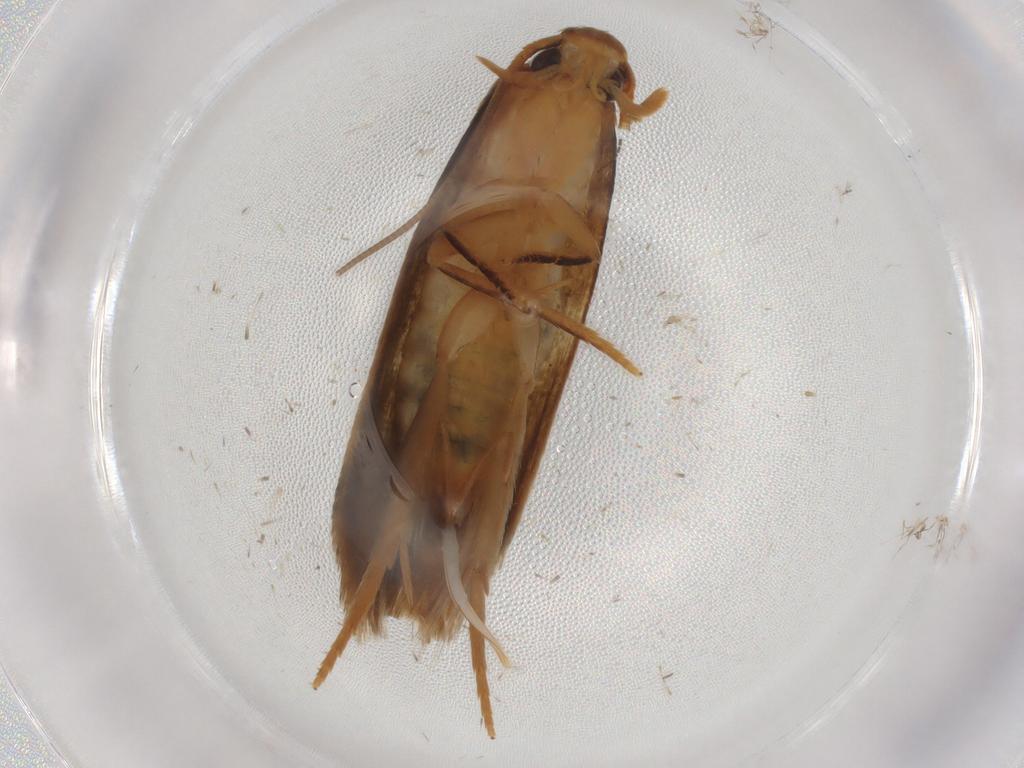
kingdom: Animalia
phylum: Arthropoda
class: Insecta
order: Lepidoptera
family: Tineidae
